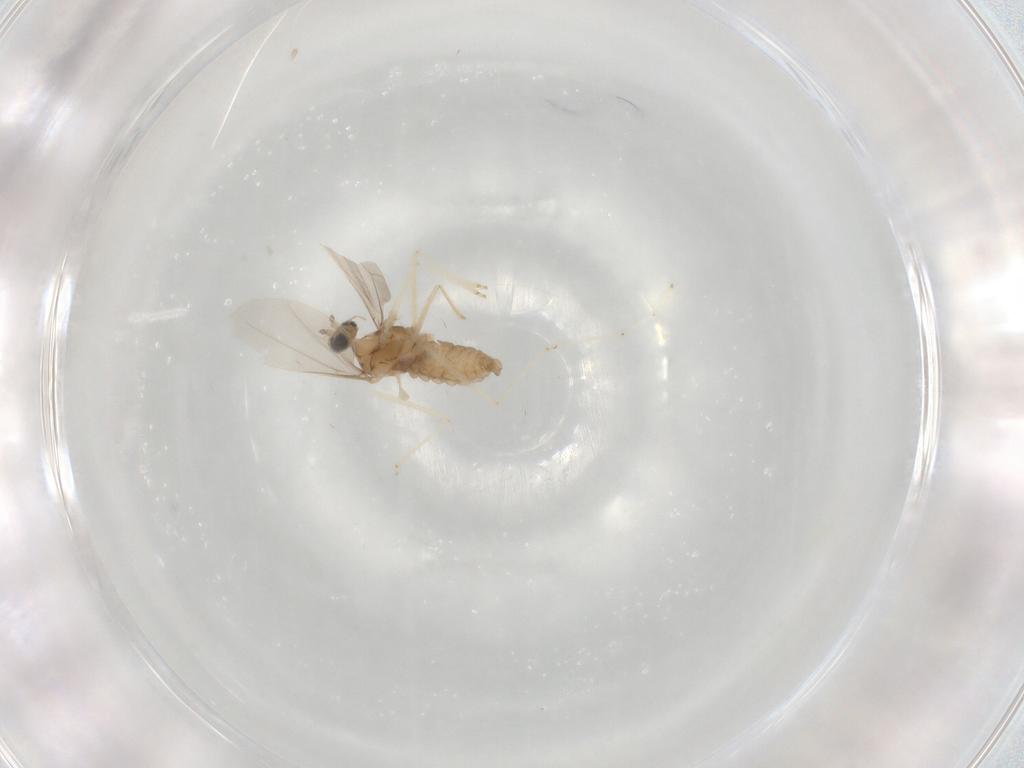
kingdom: Animalia
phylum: Arthropoda
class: Insecta
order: Diptera
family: Cecidomyiidae
